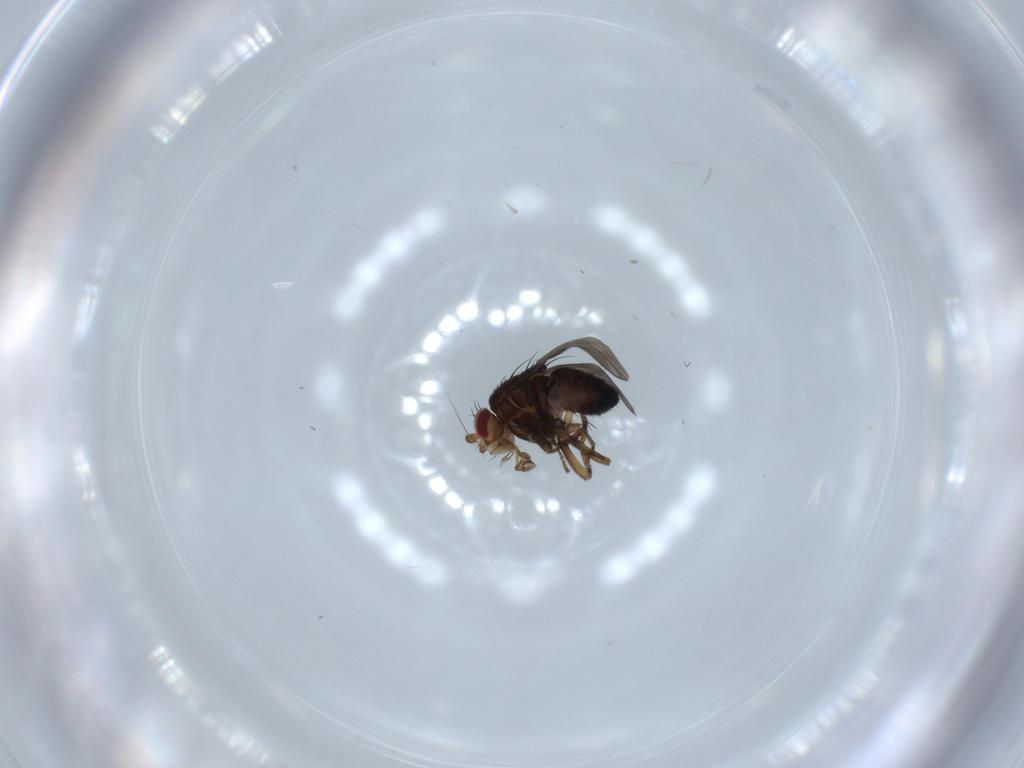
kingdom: Animalia
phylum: Arthropoda
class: Insecta
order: Diptera
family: Sphaeroceridae
